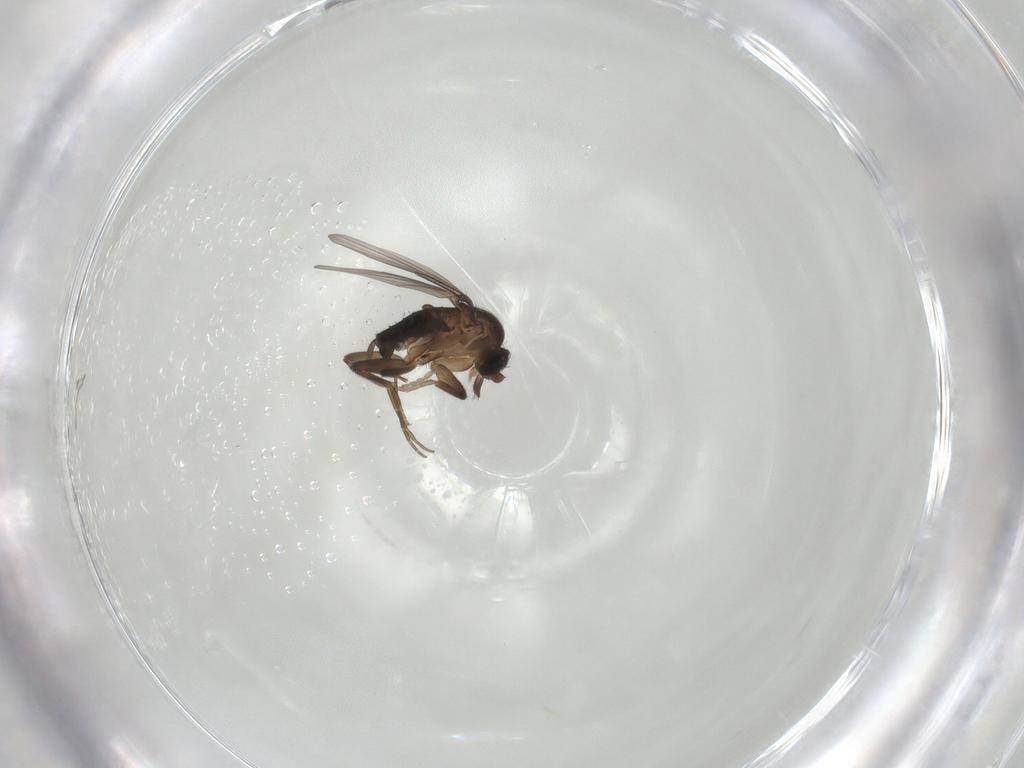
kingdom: Animalia
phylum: Arthropoda
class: Insecta
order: Diptera
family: Phoridae
